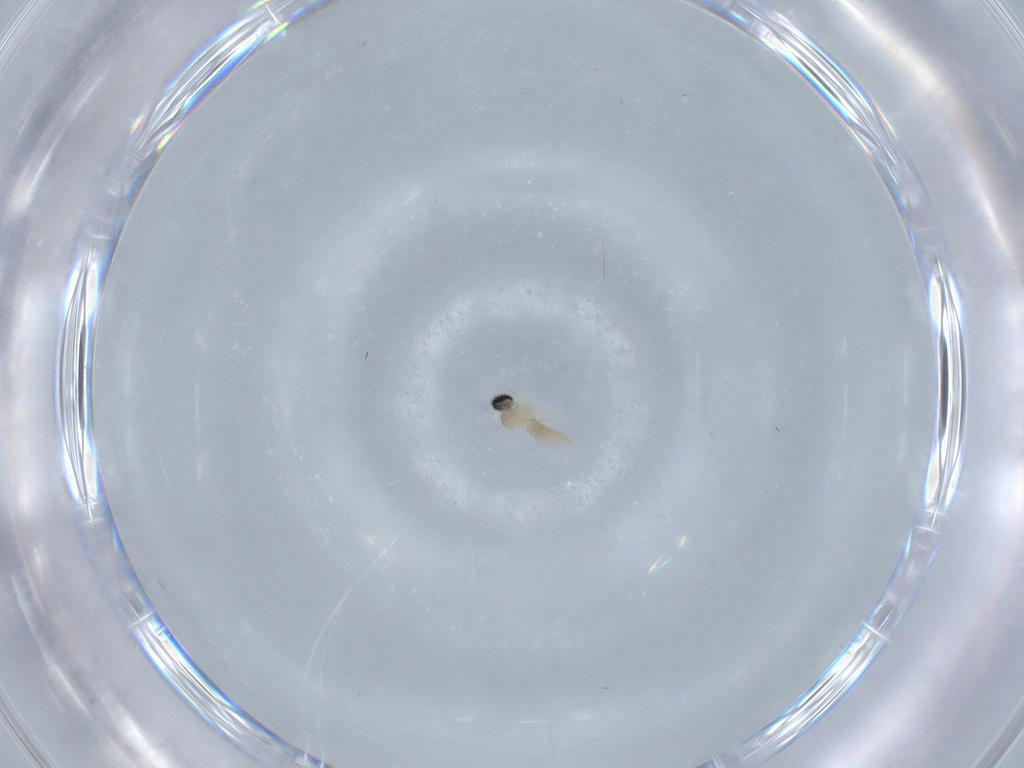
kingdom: Animalia
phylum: Arthropoda
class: Insecta
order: Diptera
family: Cecidomyiidae
